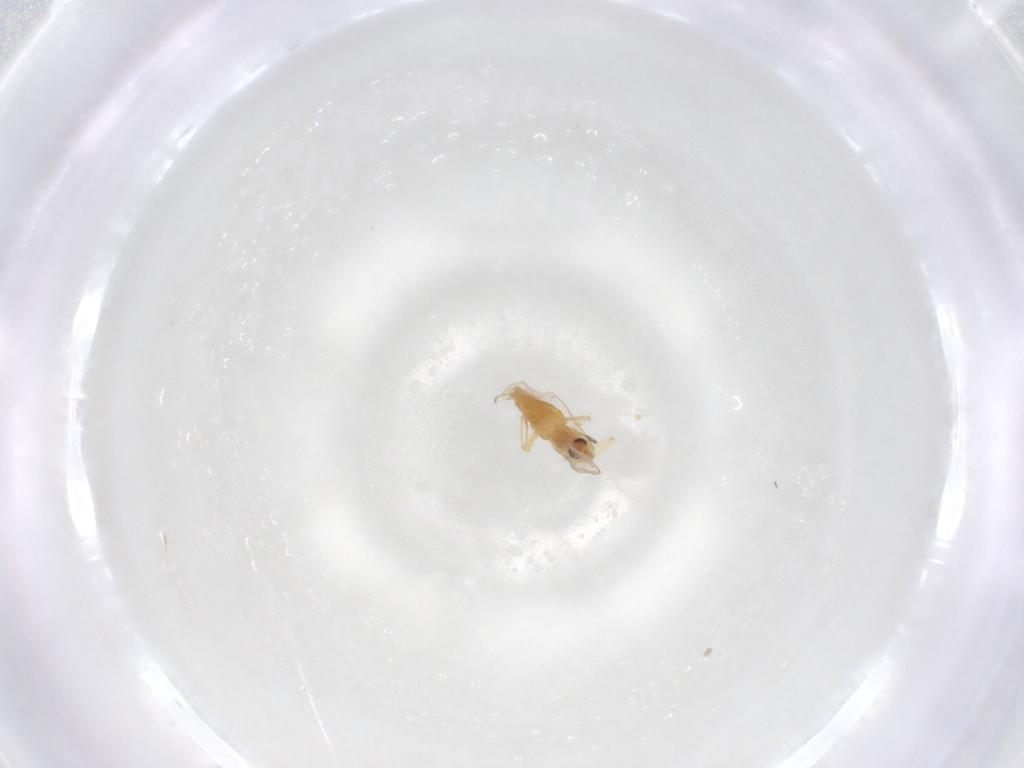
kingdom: Animalia
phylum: Arthropoda
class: Insecta
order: Diptera
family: Chironomidae
